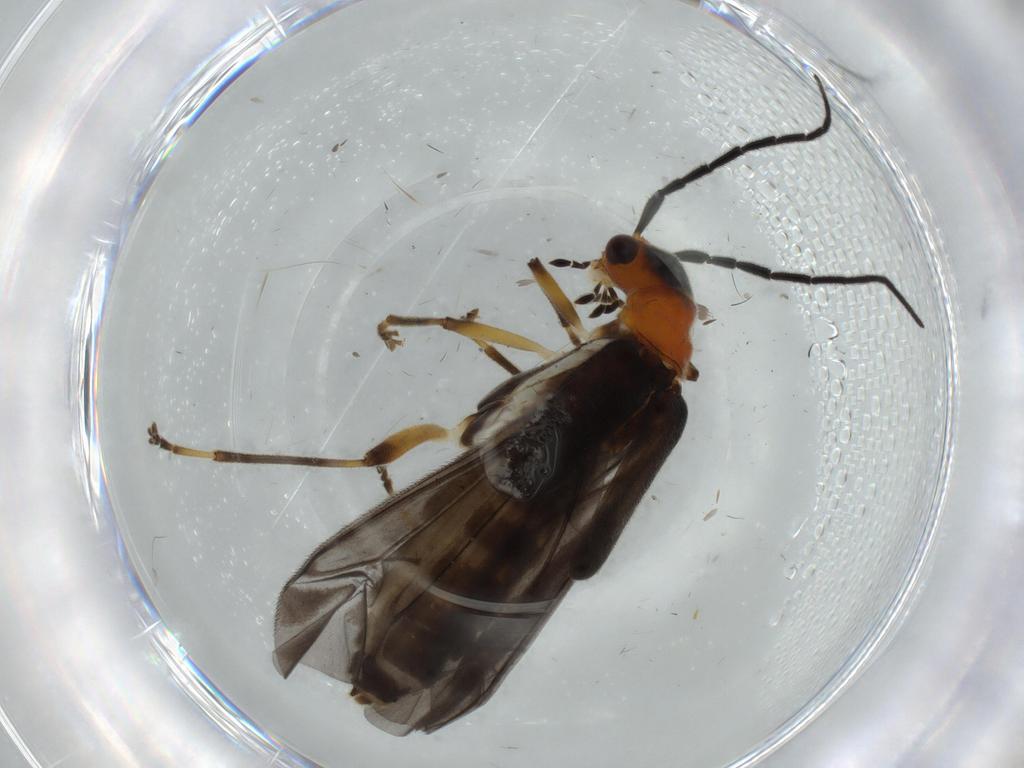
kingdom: Animalia
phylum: Arthropoda
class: Insecta
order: Coleoptera
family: Cantharidae
